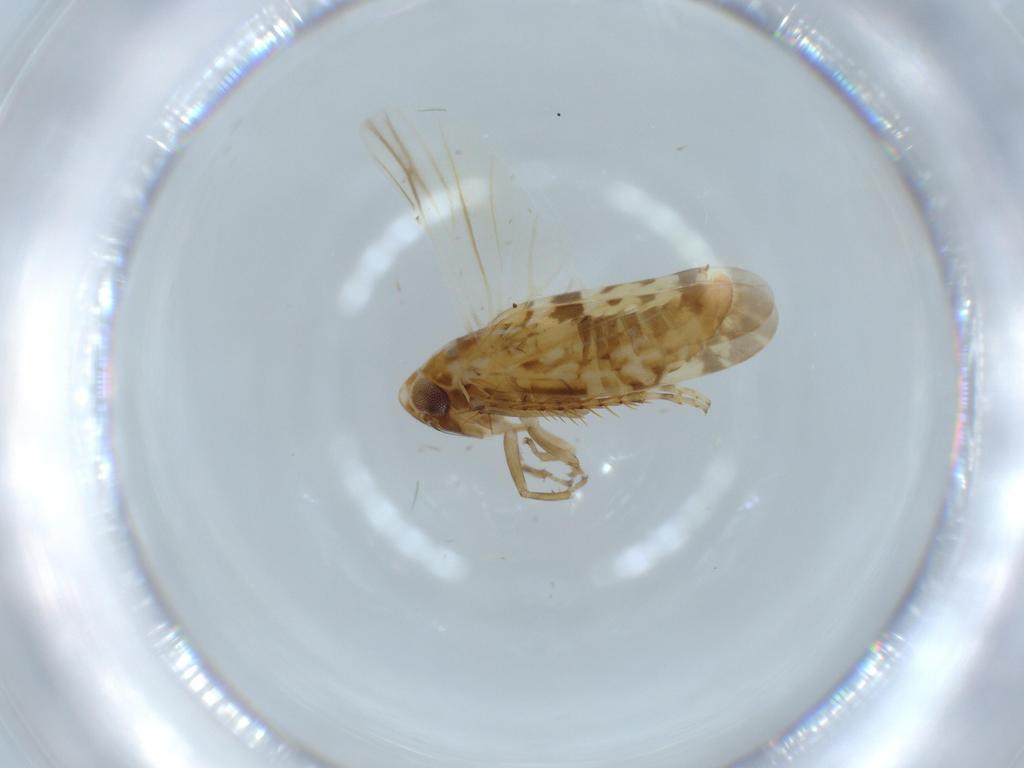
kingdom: Animalia
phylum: Arthropoda
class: Insecta
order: Hemiptera
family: Cicadellidae
